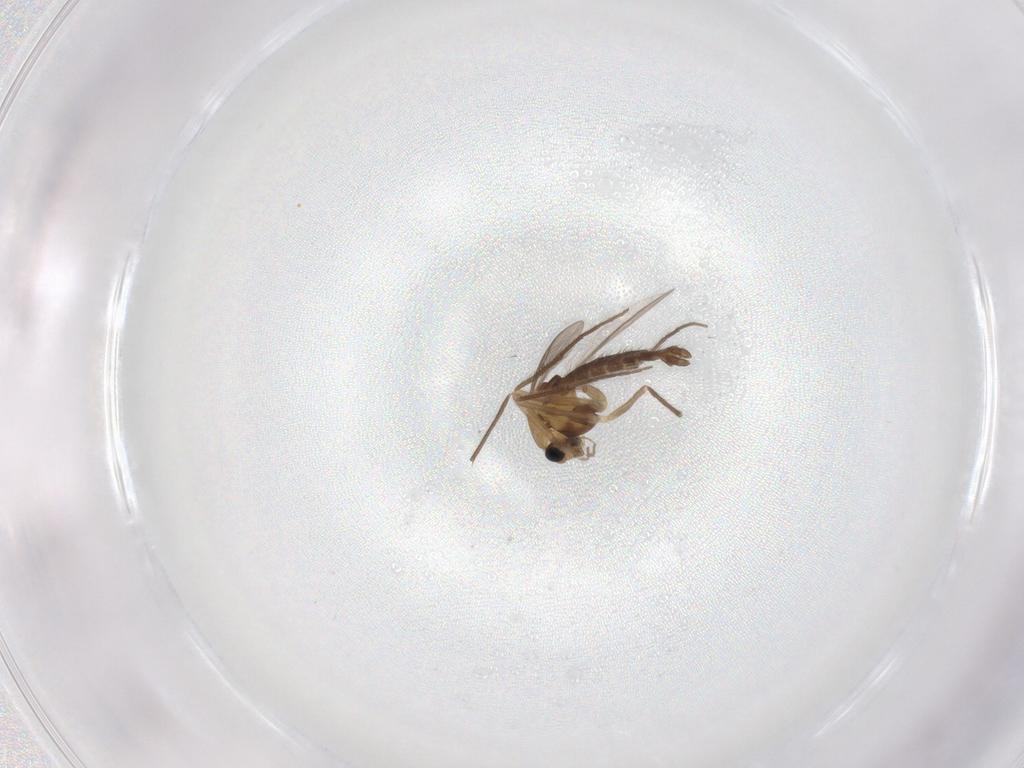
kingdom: Animalia
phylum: Arthropoda
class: Insecta
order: Diptera
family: Chironomidae
